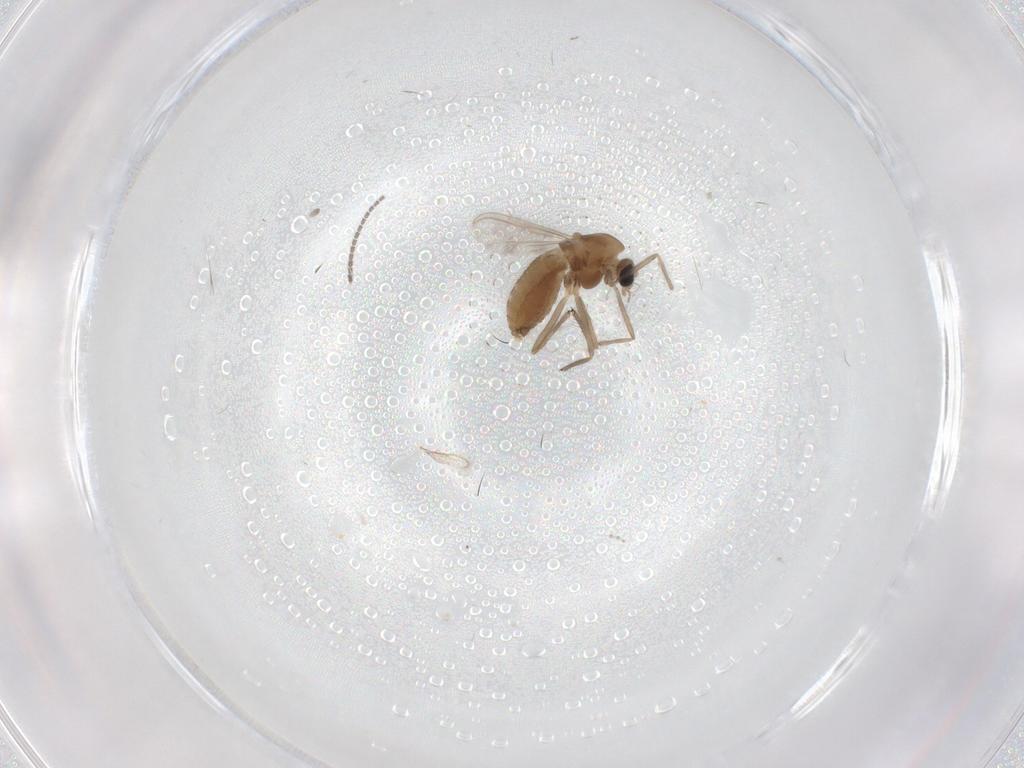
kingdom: Animalia
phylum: Arthropoda
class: Insecta
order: Diptera
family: Chironomidae
